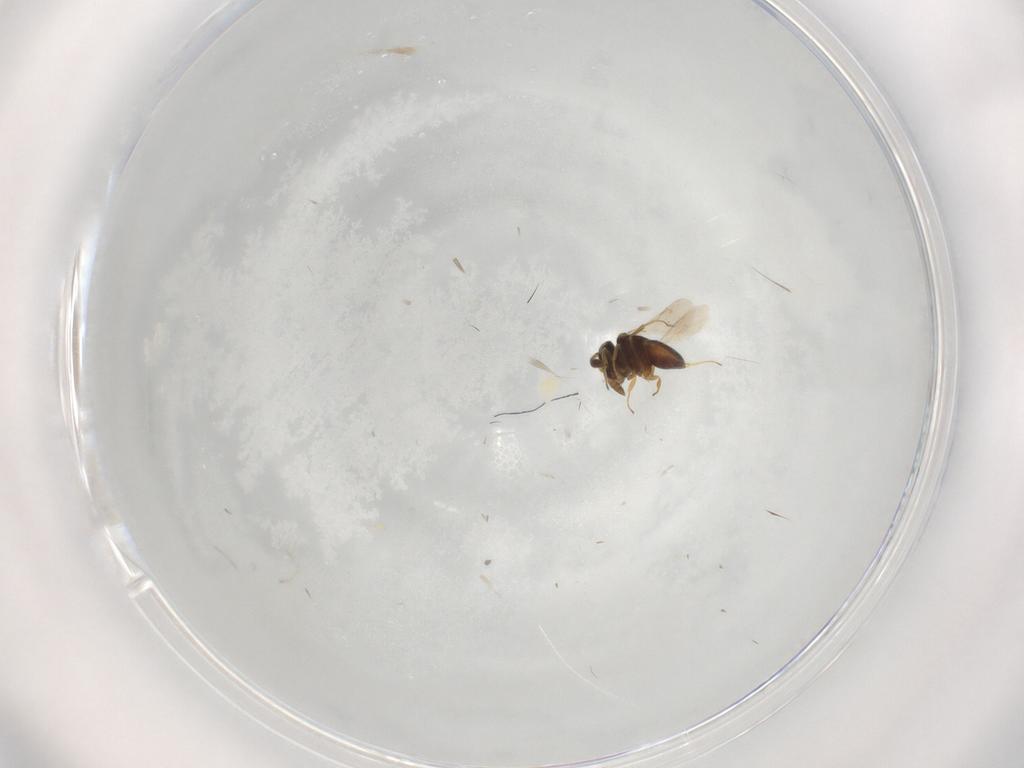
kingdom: Animalia
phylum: Arthropoda
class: Insecta
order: Hymenoptera
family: Scelionidae
